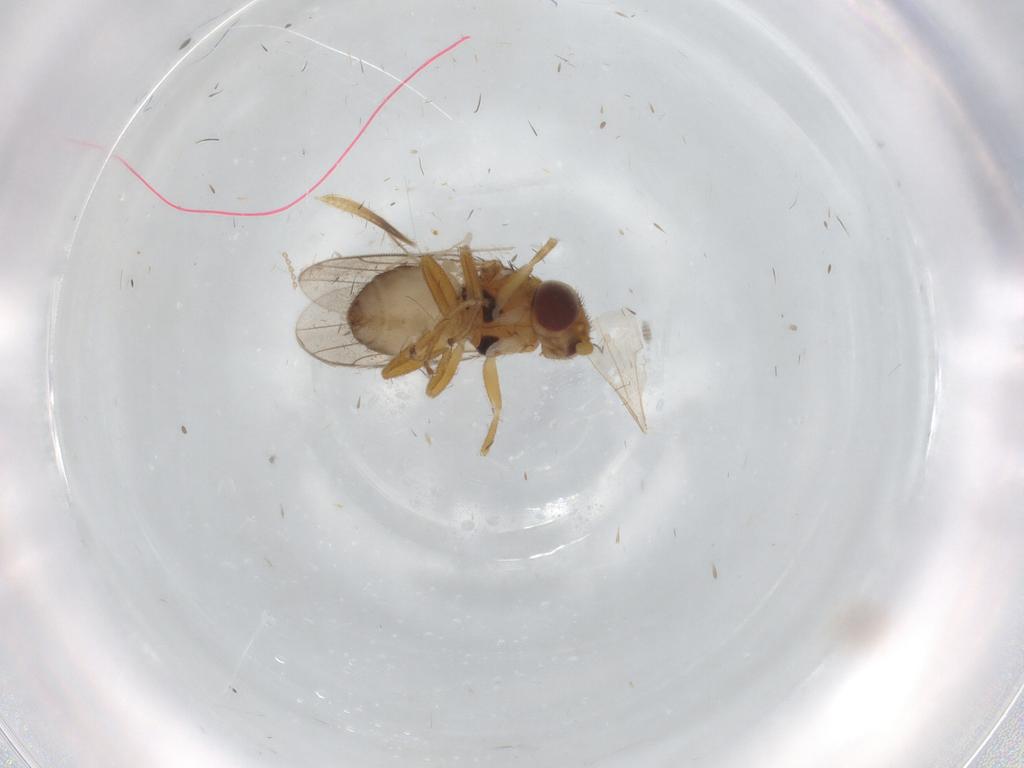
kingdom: Animalia
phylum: Arthropoda
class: Insecta
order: Diptera
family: Chloropidae
